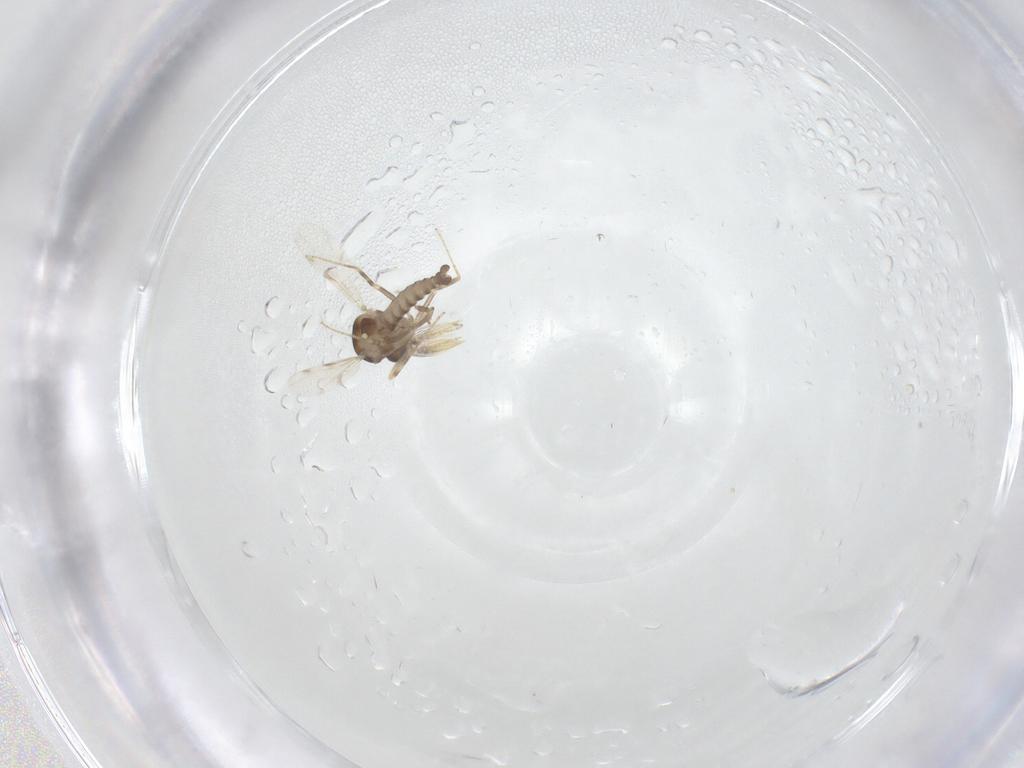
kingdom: Animalia
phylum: Arthropoda
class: Insecta
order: Diptera
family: Ceratopogonidae
